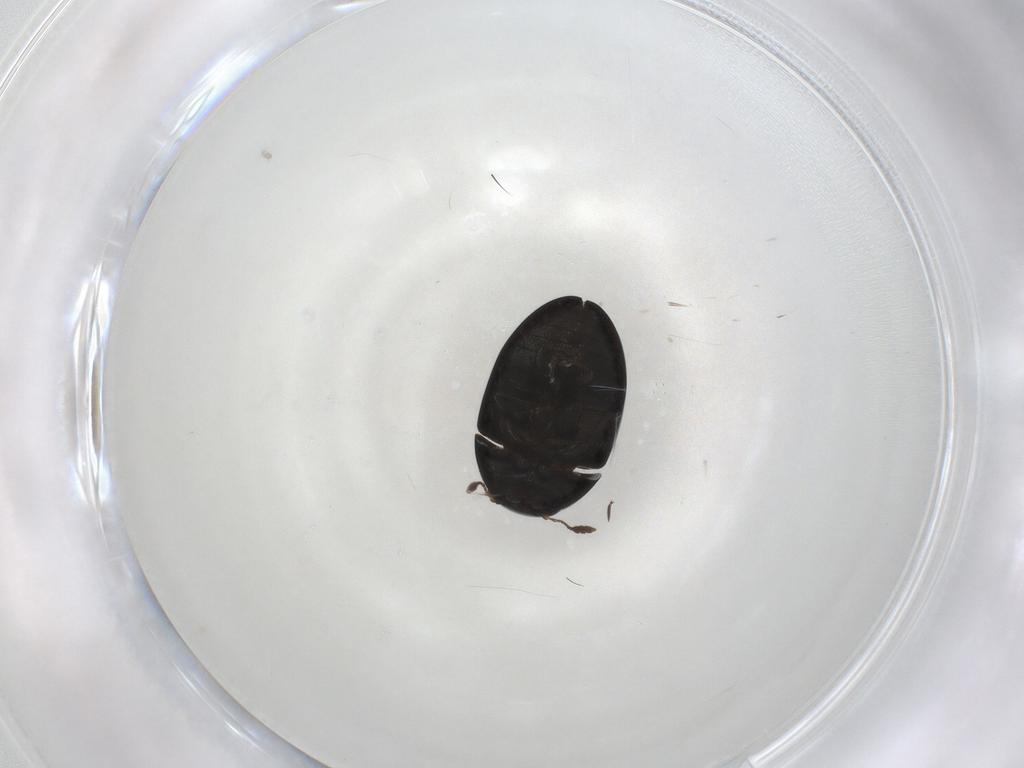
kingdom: Animalia
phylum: Arthropoda
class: Insecta
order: Coleoptera
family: Phalacridae
